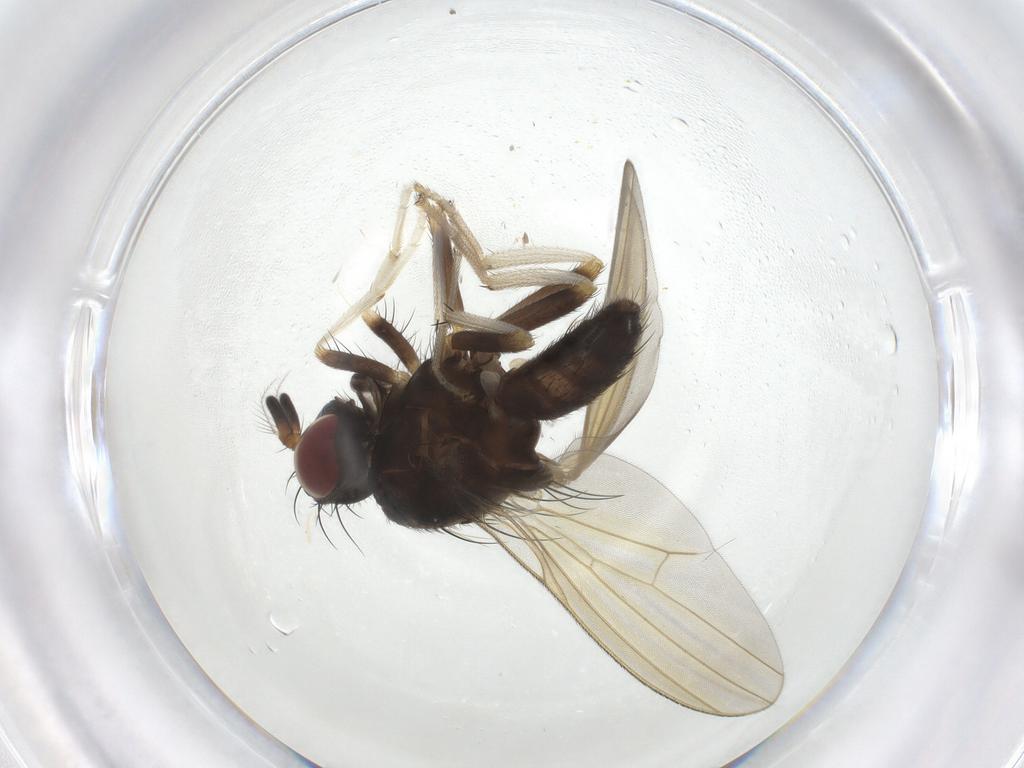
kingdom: Animalia
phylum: Arthropoda
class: Insecta
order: Diptera
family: Lauxaniidae
